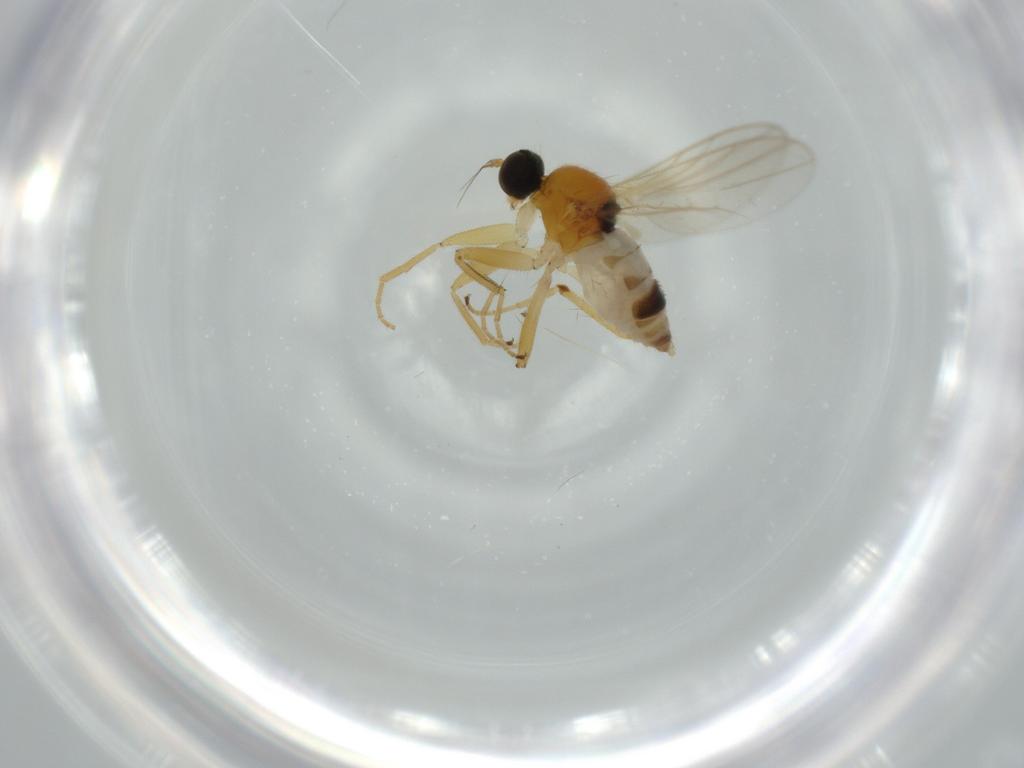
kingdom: Animalia
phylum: Arthropoda
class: Insecta
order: Diptera
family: Hybotidae
